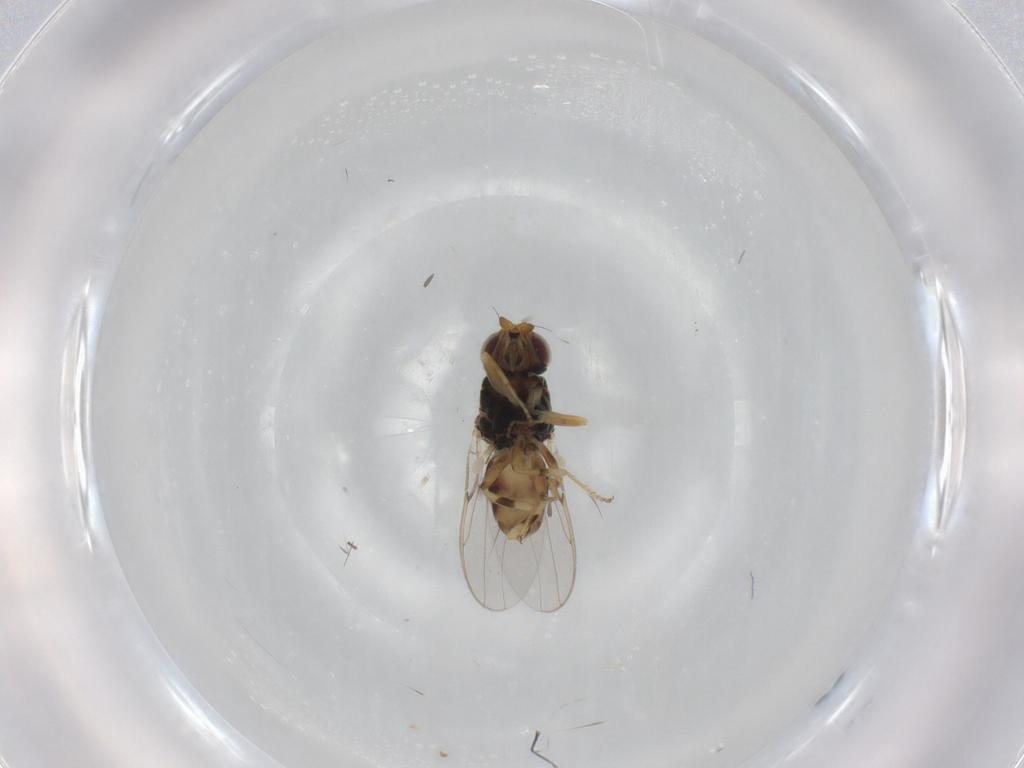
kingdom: Animalia
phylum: Arthropoda
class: Insecta
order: Diptera
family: Chloropidae
